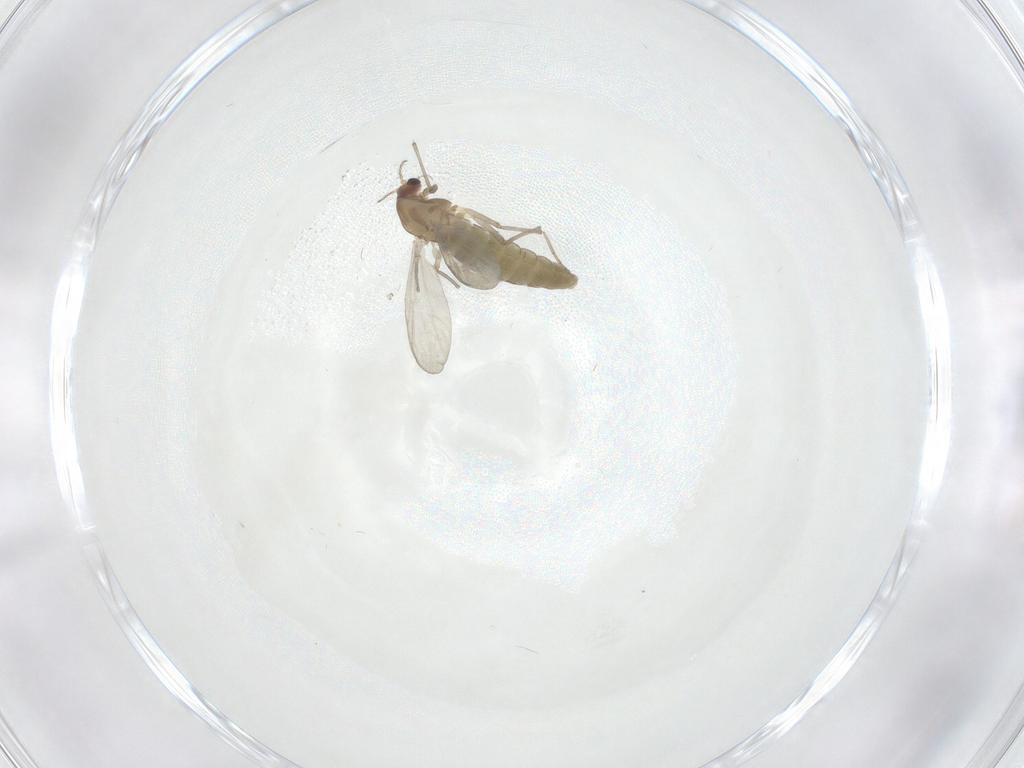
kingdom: Animalia
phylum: Arthropoda
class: Insecta
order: Diptera
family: Chironomidae
